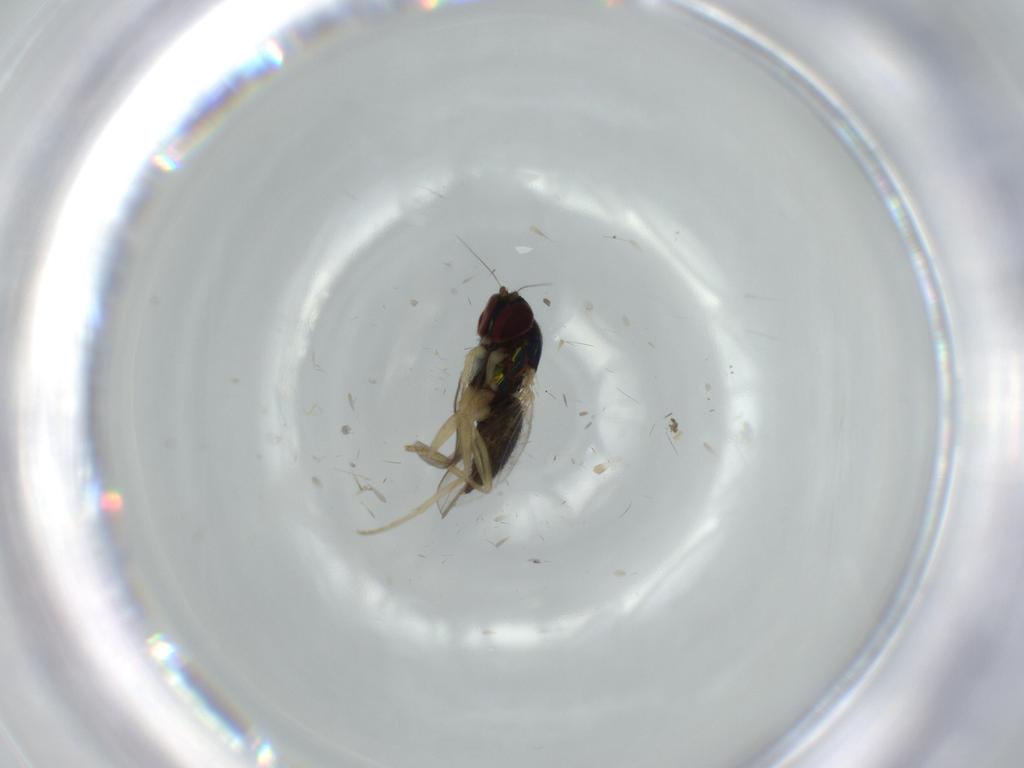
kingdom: Animalia
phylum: Arthropoda
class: Insecta
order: Diptera
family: Dolichopodidae
